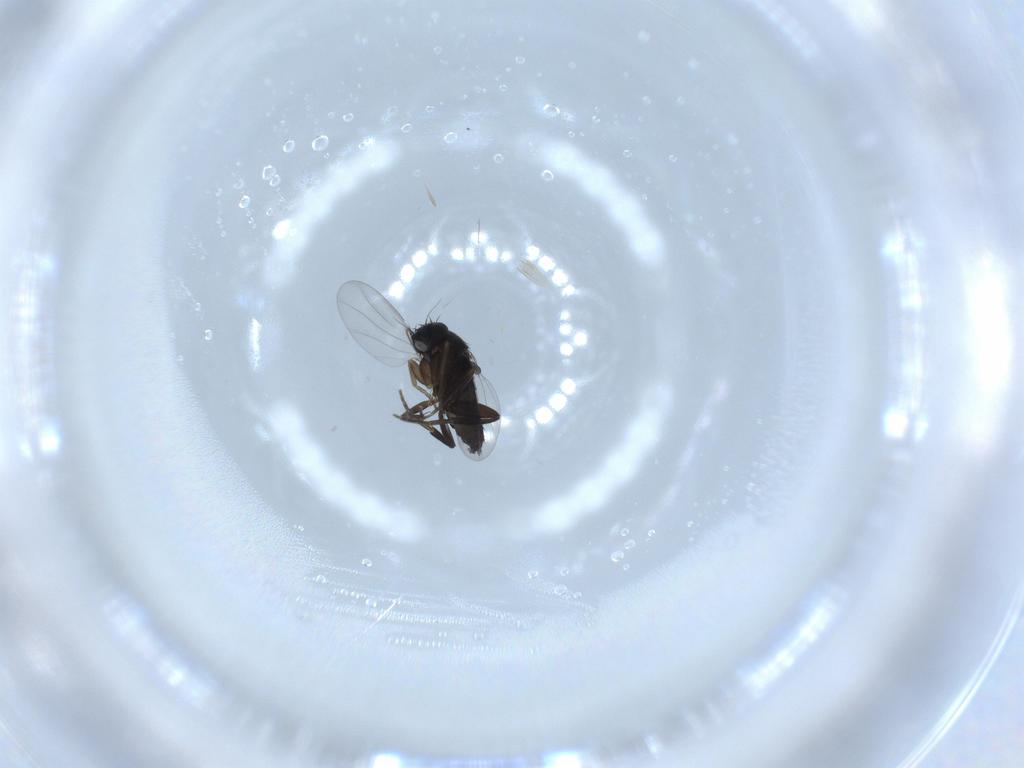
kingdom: Animalia
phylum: Arthropoda
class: Insecta
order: Diptera
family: Phoridae
